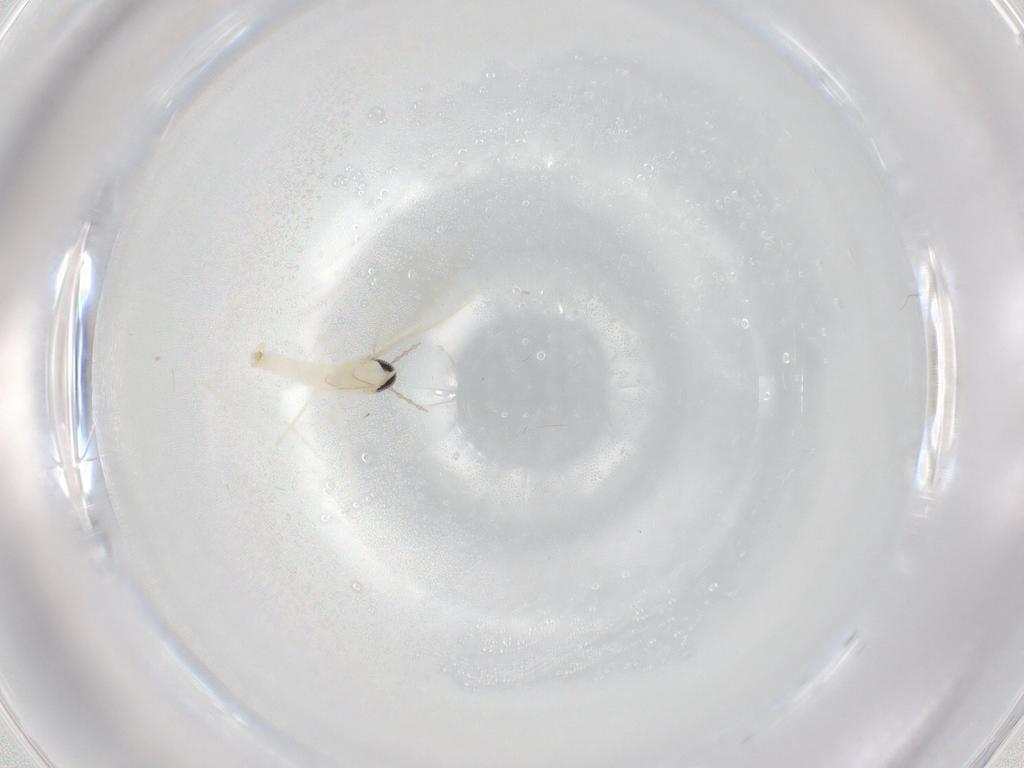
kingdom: Animalia
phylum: Arthropoda
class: Insecta
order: Diptera
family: Cecidomyiidae
